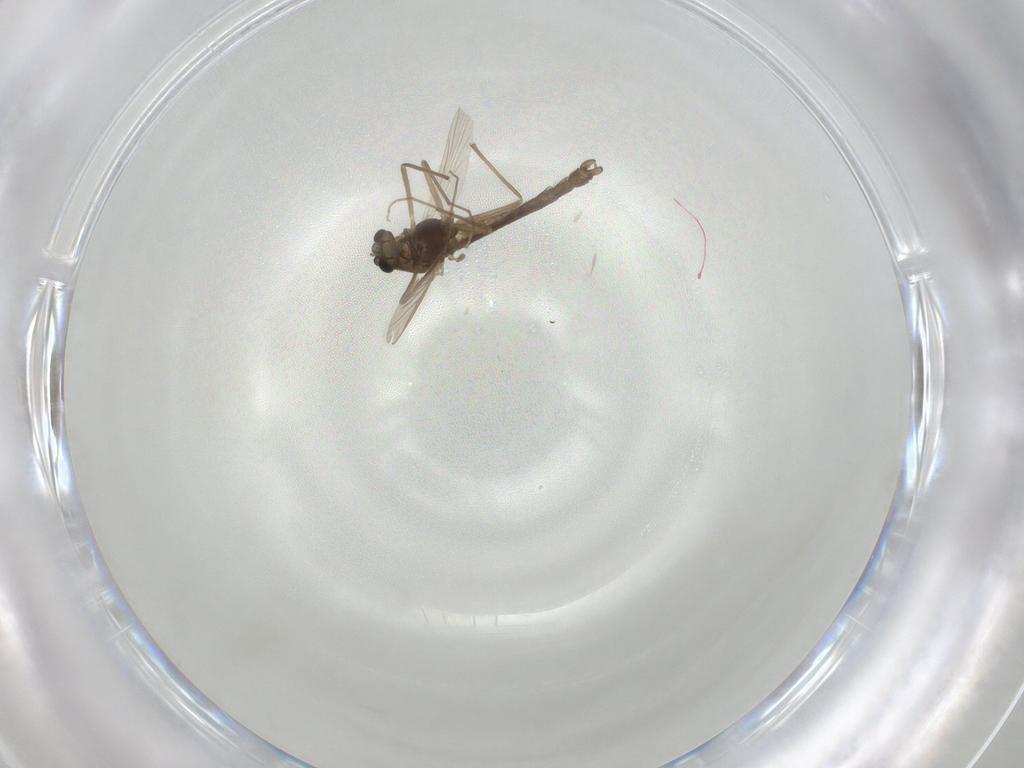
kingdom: Animalia
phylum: Arthropoda
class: Insecta
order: Diptera
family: Chironomidae
